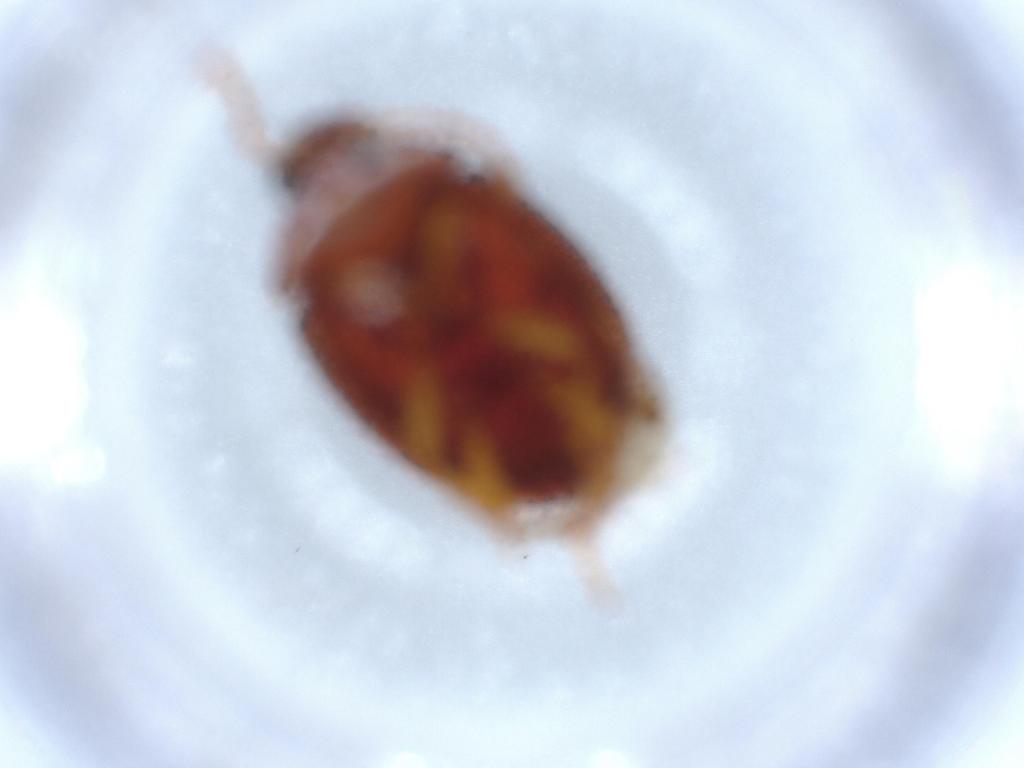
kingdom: Animalia
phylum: Arthropoda
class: Insecta
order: Coleoptera
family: Tenebrionidae
